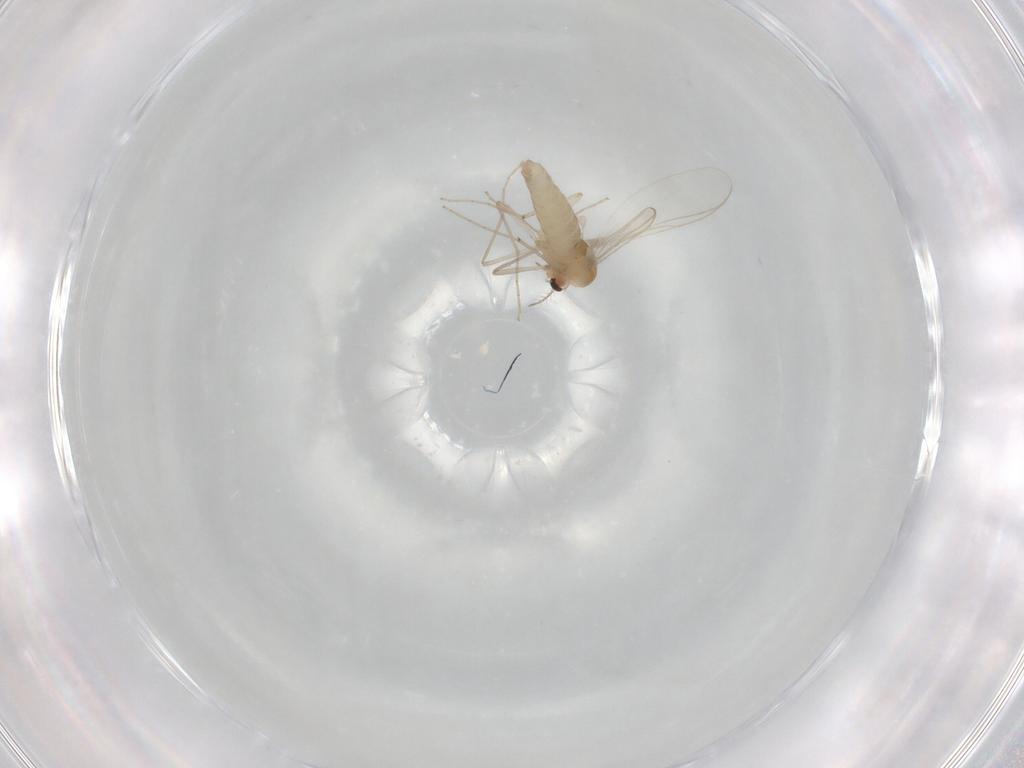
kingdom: Animalia
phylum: Arthropoda
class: Insecta
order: Diptera
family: Chironomidae
